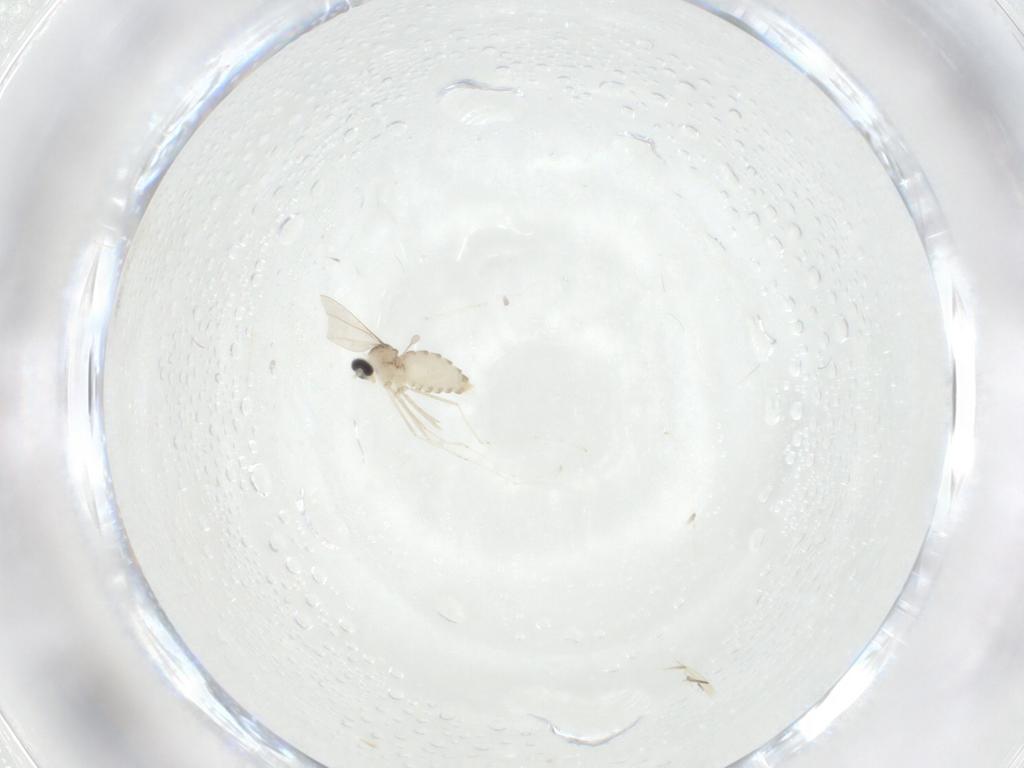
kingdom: Animalia
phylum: Arthropoda
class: Insecta
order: Diptera
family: Cecidomyiidae
